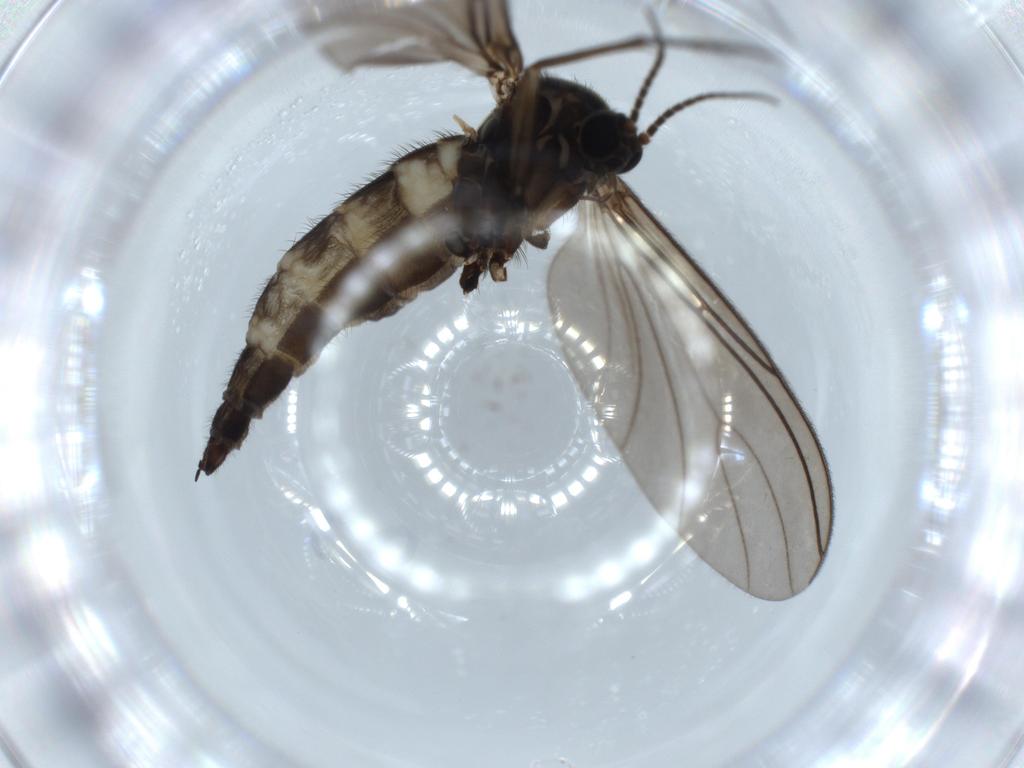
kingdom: Animalia
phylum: Arthropoda
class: Insecta
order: Diptera
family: Sciaridae
